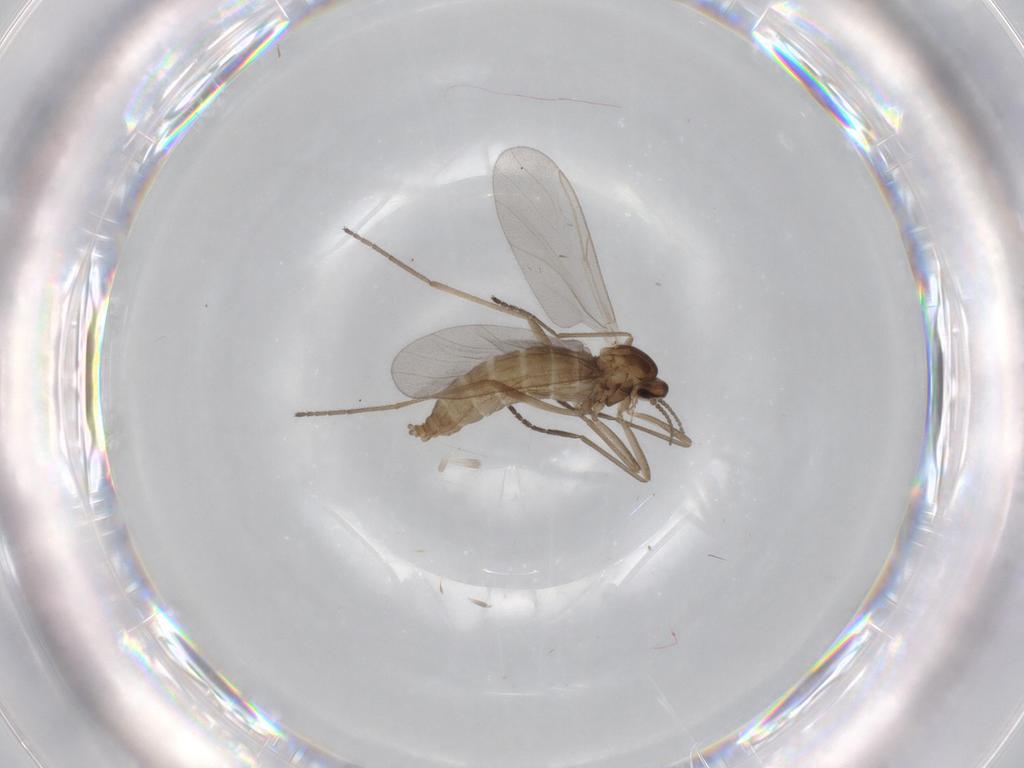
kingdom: Animalia
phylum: Arthropoda
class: Insecta
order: Diptera
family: Cecidomyiidae
